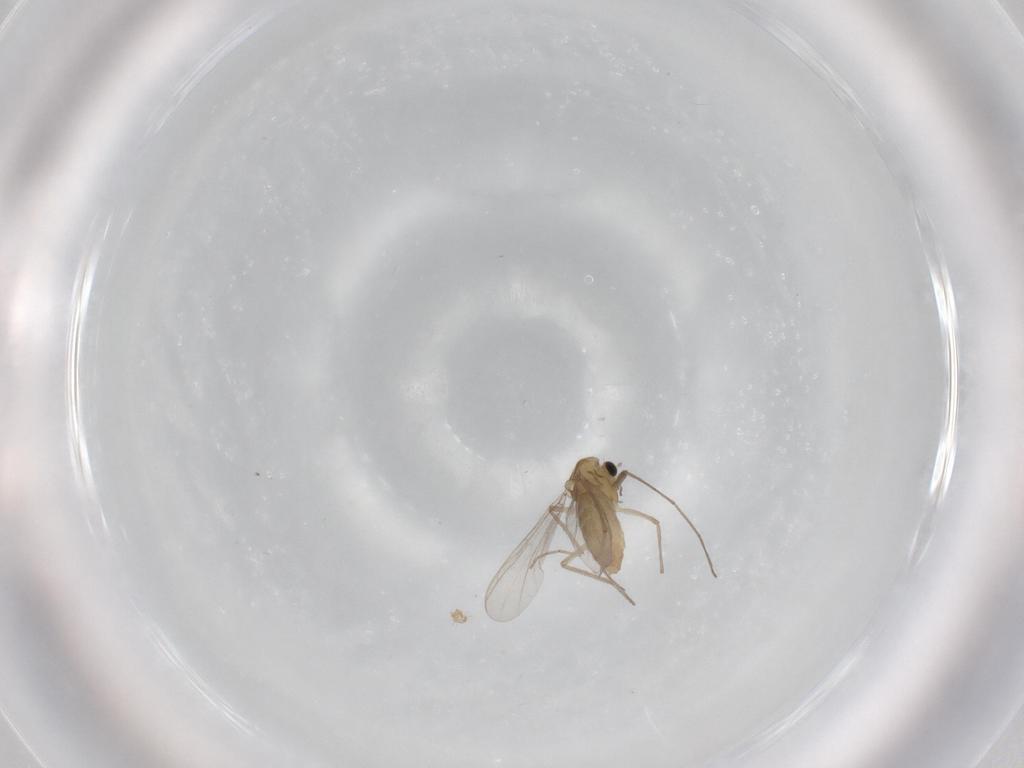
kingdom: Animalia
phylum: Arthropoda
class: Insecta
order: Diptera
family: Chironomidae
